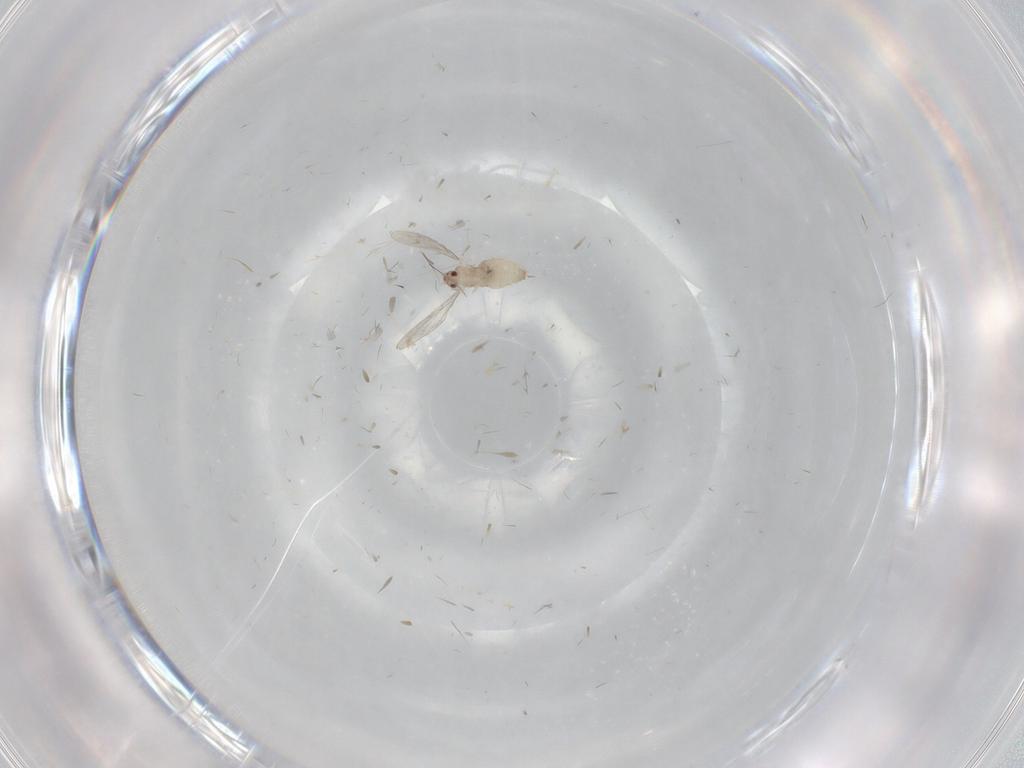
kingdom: Animalia
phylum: Arthropoda
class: Insecta
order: Diptera
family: Cecidomyiidae
